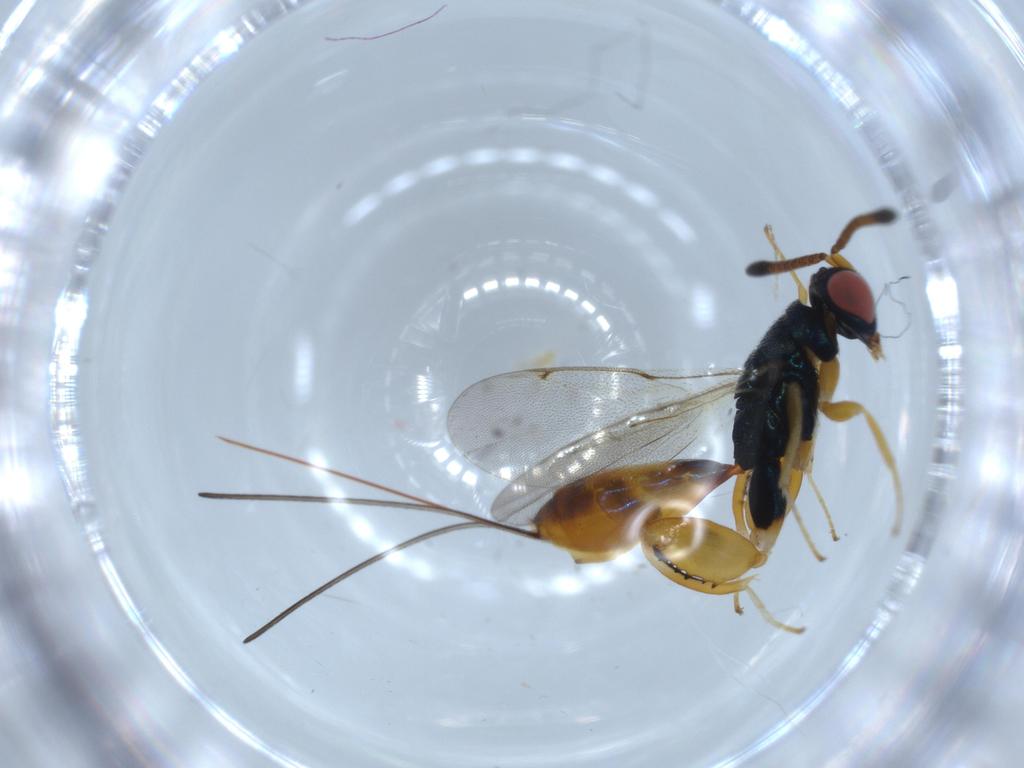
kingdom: Animalia
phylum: Arthropoda
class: Insecta
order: Hymenoptera
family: Torymidae
